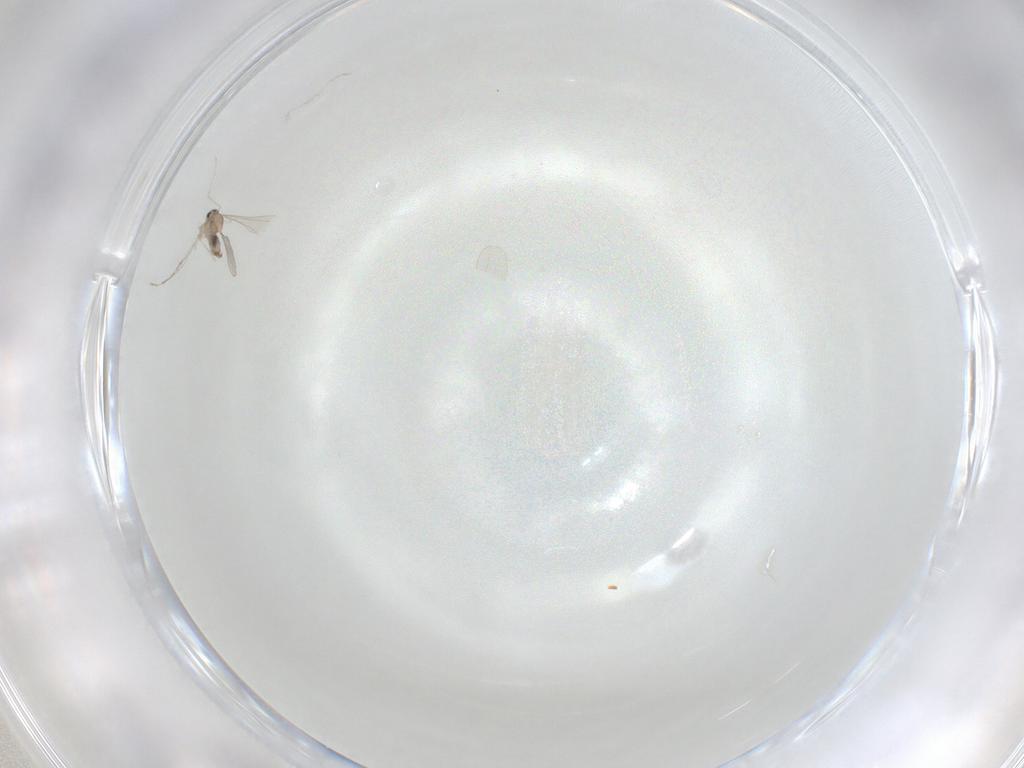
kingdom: Animalia
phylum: Arthropoda
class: Insecta
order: Diptera
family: Cecidomyiidae
